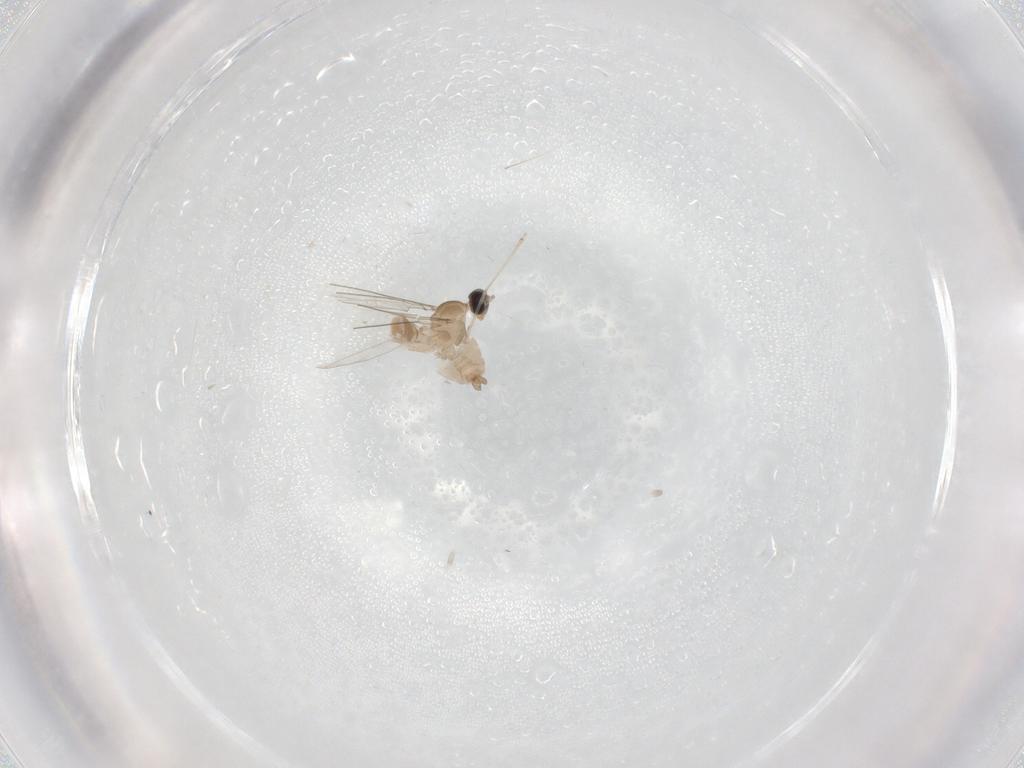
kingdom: Animalia
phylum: Arthropoda
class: Insecta
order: Diptera
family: Cecidomyiidae
